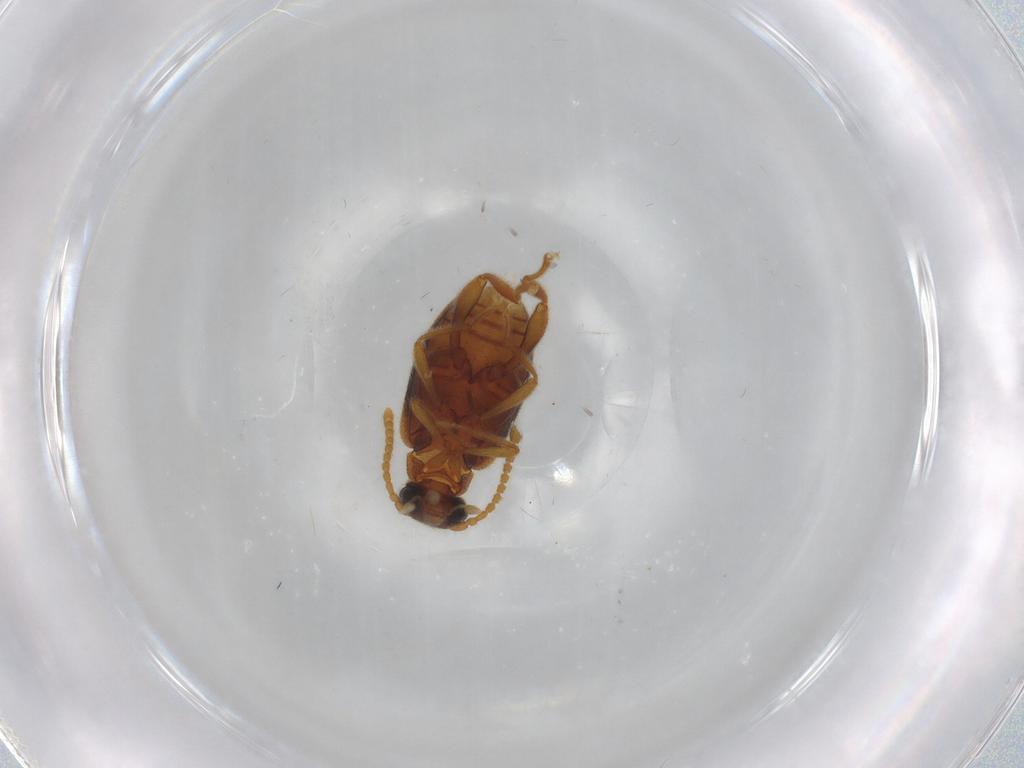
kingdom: Animalia
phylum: Arthropoda
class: Insecta
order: Coleoptera
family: Aderidae
